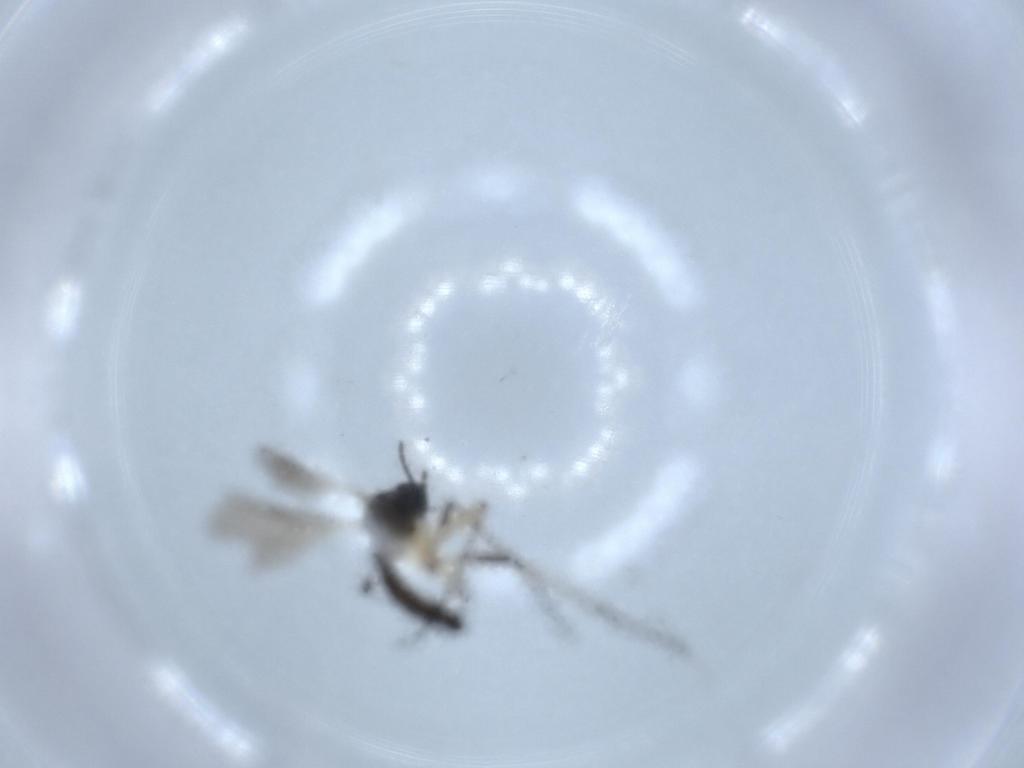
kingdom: Animalia
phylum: Arthropoda
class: Insecta
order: Diptera
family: Sciaridae
